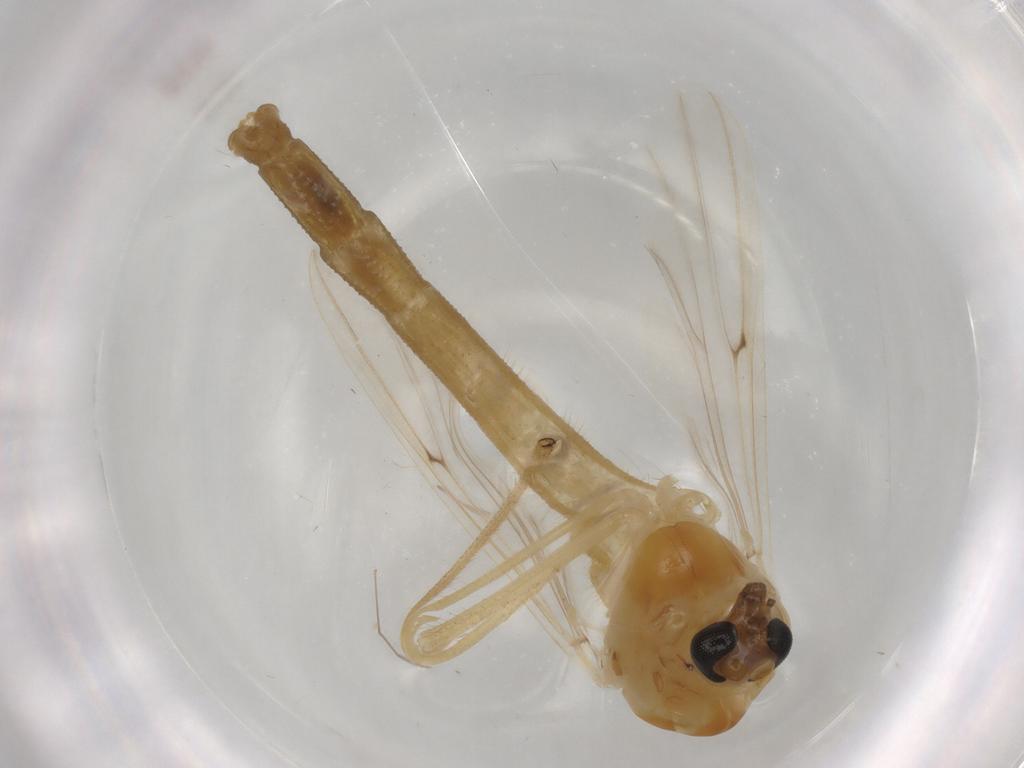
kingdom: Animalia
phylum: Arthropoda
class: Insecta
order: Diptera
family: Chironomidae
